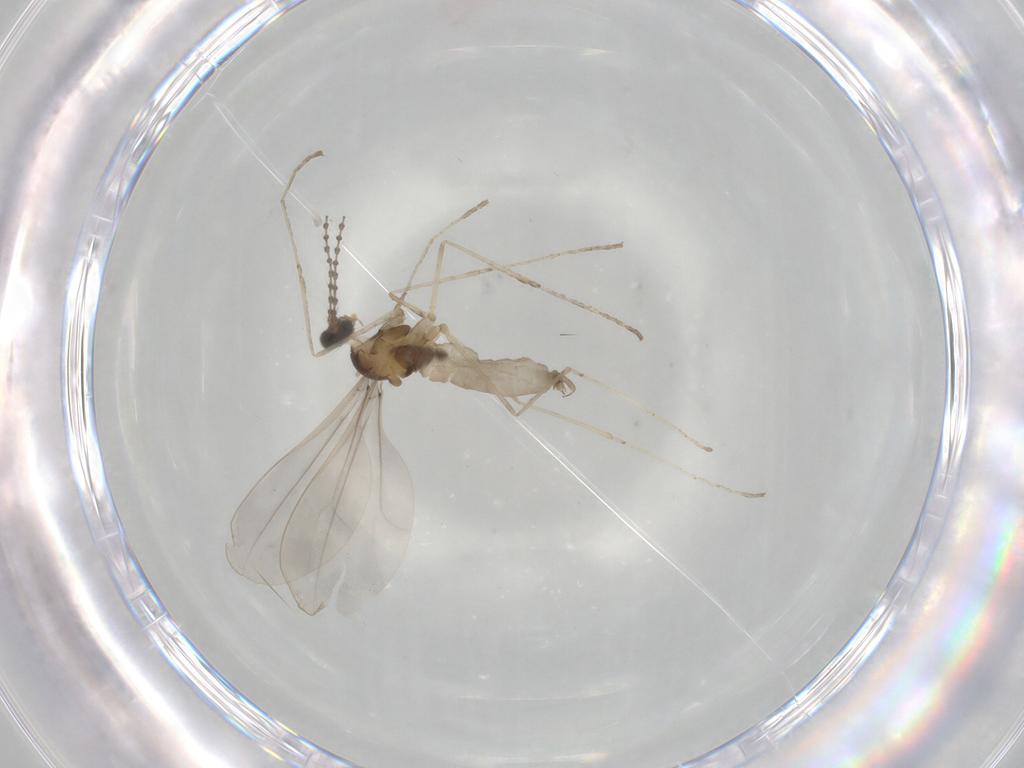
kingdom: Animalia
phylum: Arthropoda
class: Insecta
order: Diptera
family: Cecidomyiidae
